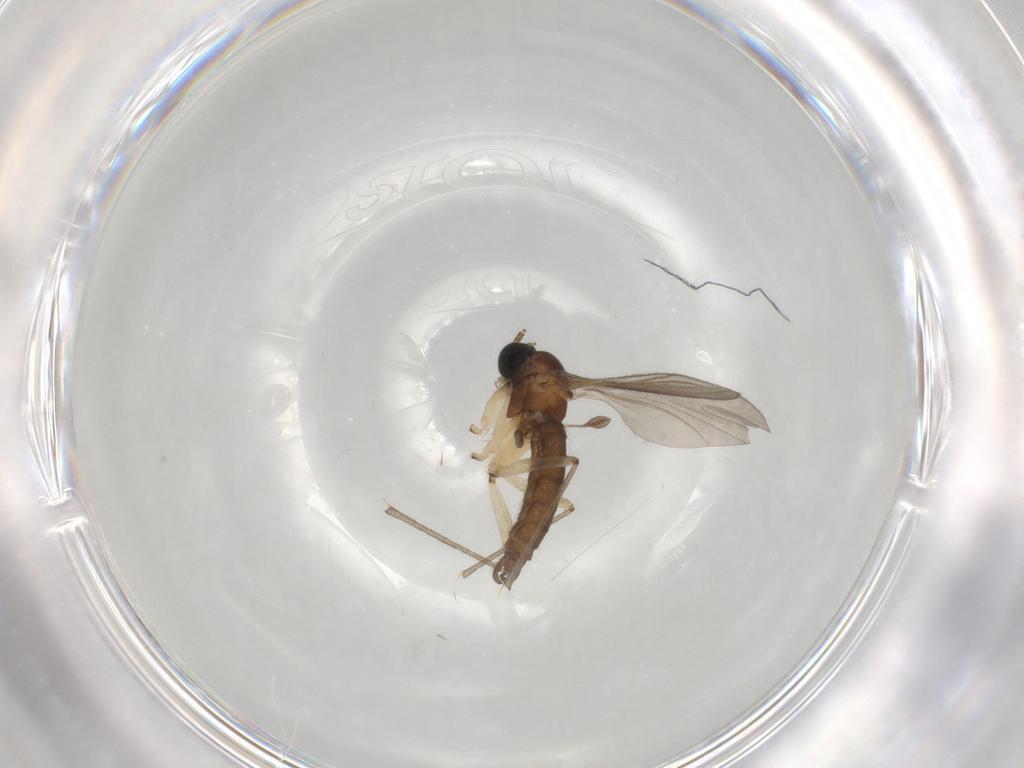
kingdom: Animalia
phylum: Arthropoda
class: Insecta
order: Diptera
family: Sciaridae
